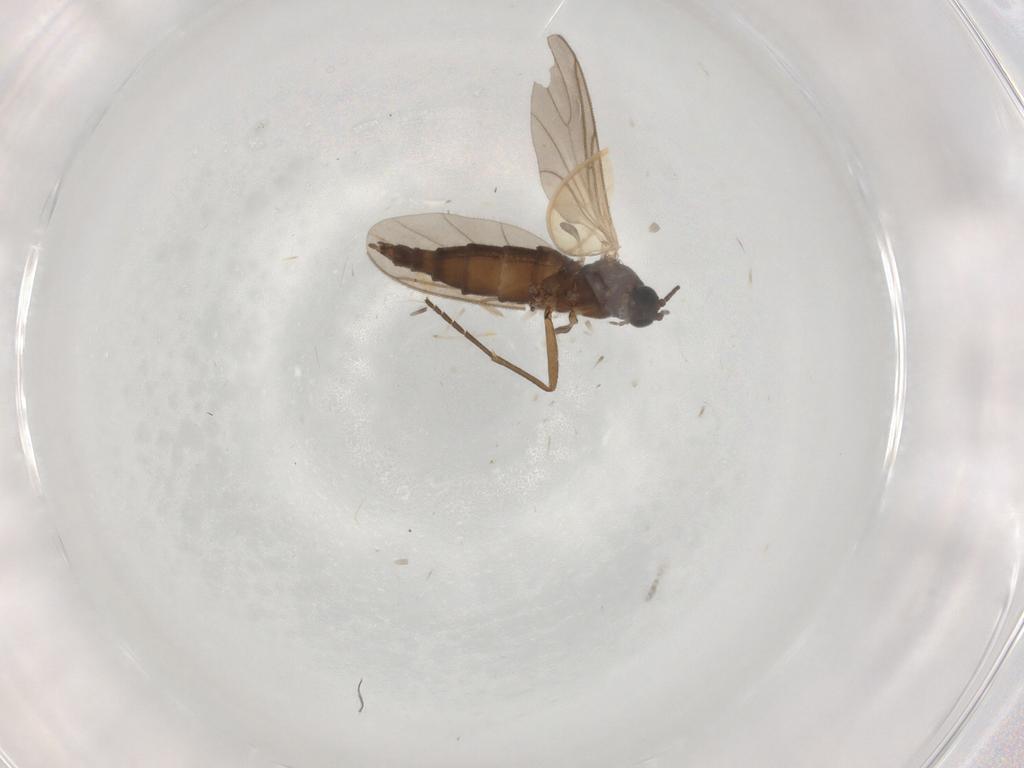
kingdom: Animalia
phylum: Arthropoda
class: Insecta
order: Diptera
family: Sciaridae
